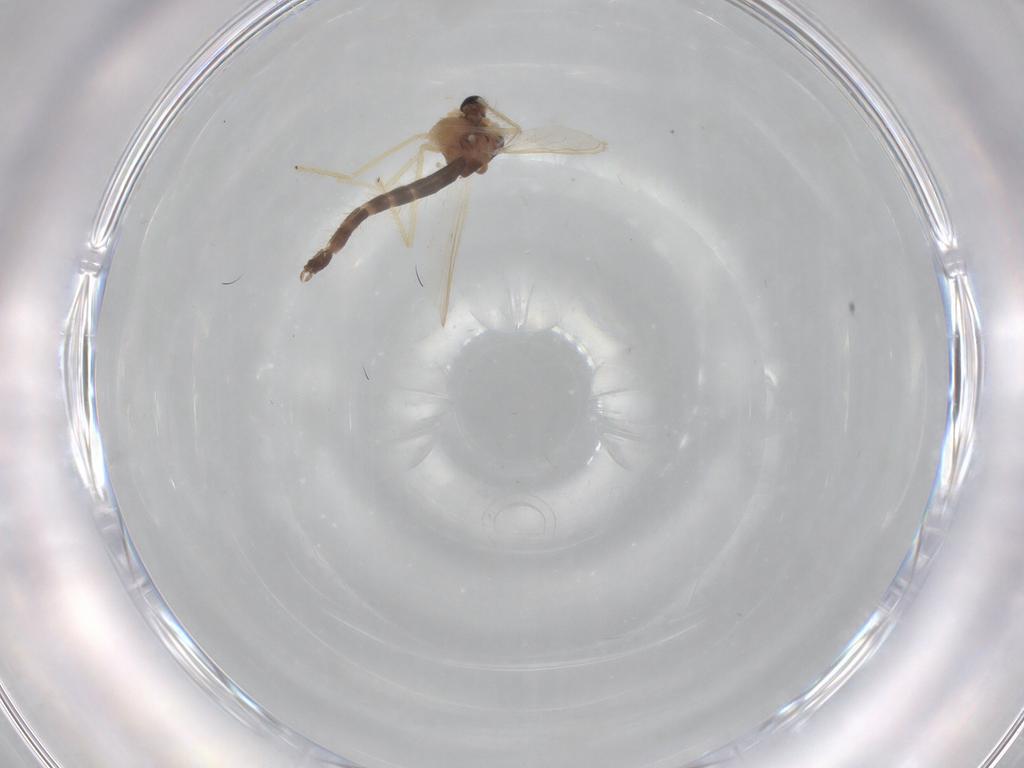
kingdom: Animalia
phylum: Arthropoda
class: Insecta
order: Diptera
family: Chironomidae
